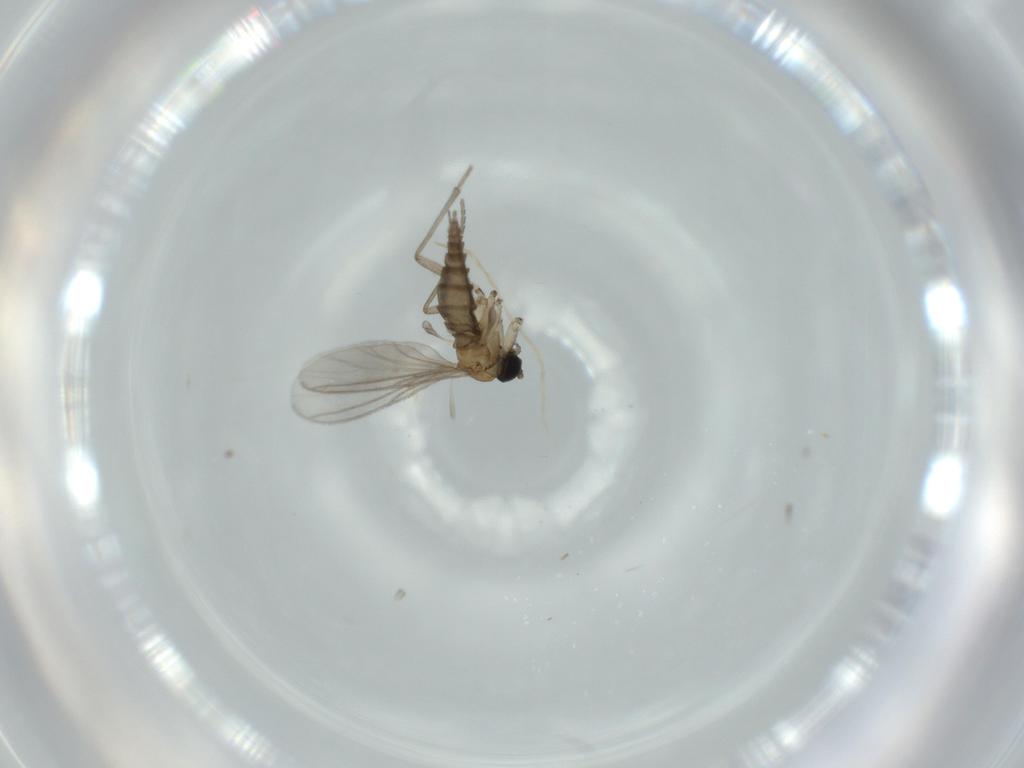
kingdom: Animalia
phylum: Arthropoda
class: Insecta
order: Diptera
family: Sciaridae
